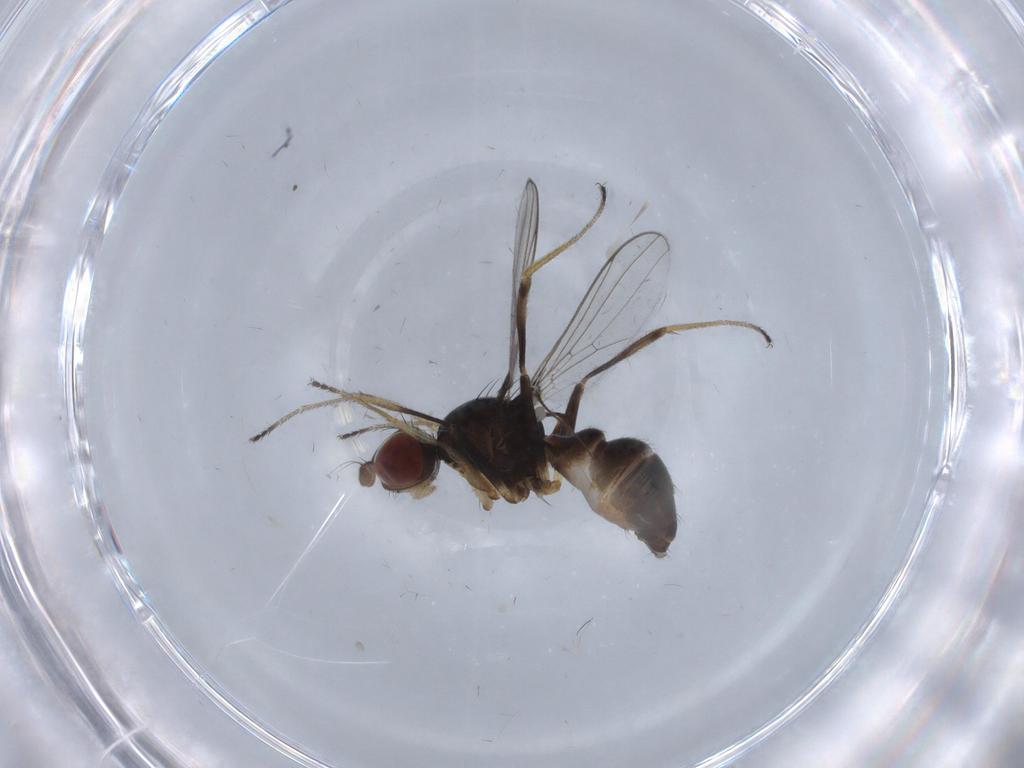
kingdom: Animalia
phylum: Arthropoda
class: Insecta
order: Diptera
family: Sepsidae
